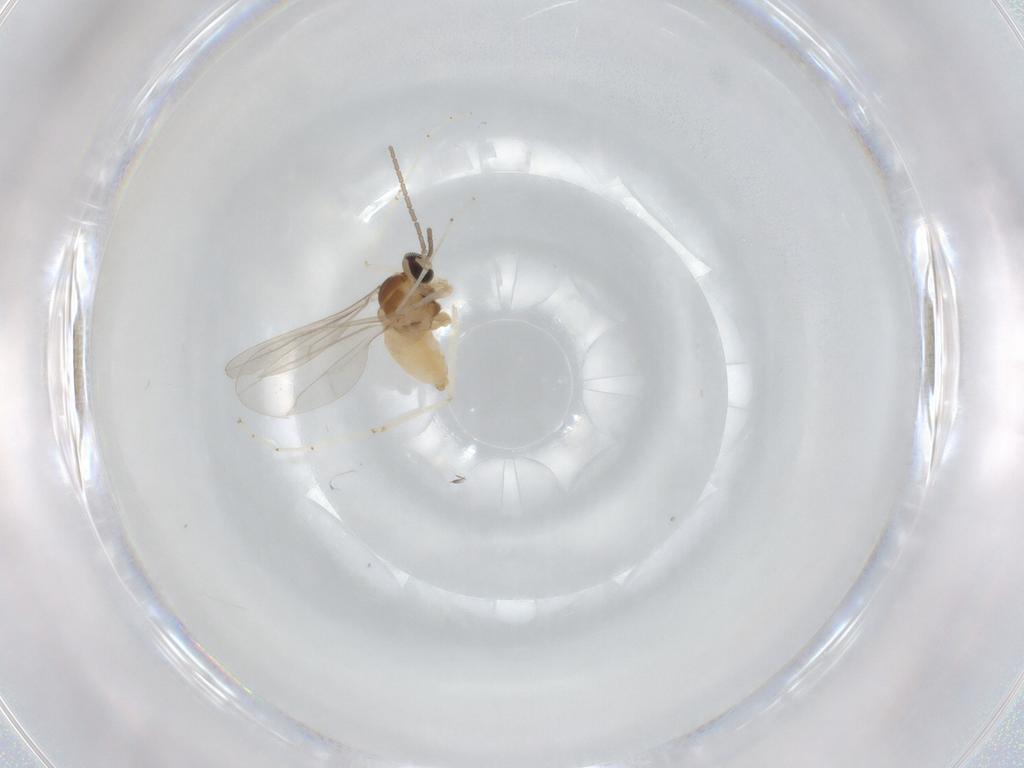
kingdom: Animalia
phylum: Arthropoda
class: Insecta
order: Diptera
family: Cecidomyiidae
